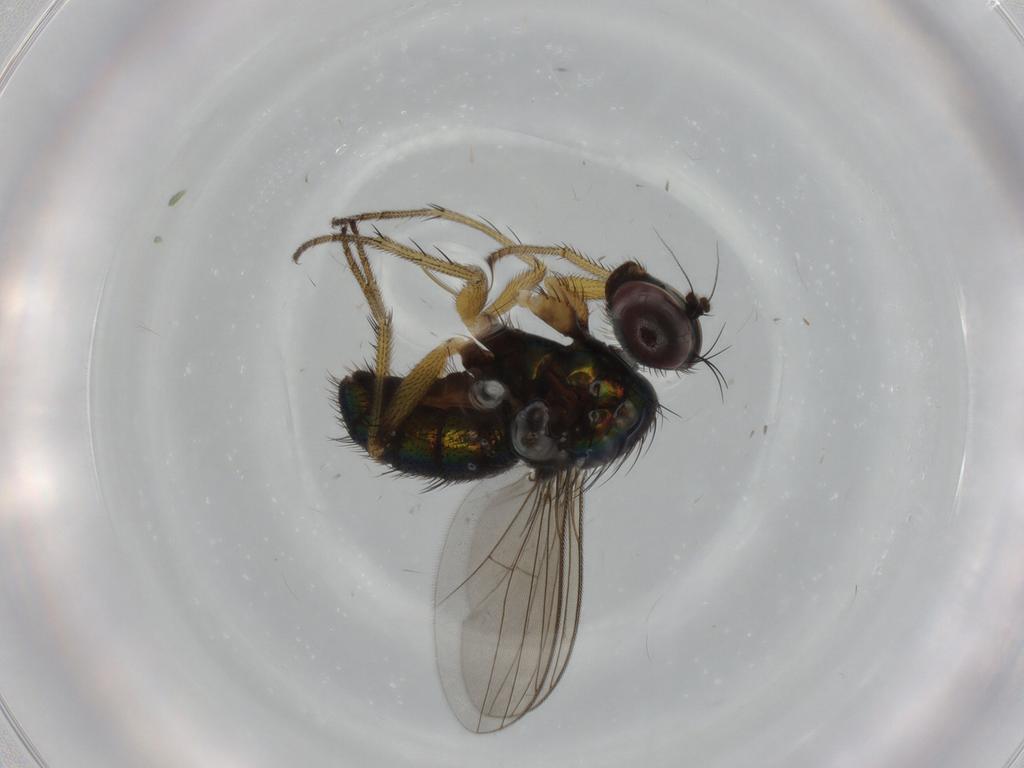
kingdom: Animalia
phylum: Arthropoda
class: Insecta
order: Diptera
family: Dolichopodidae
